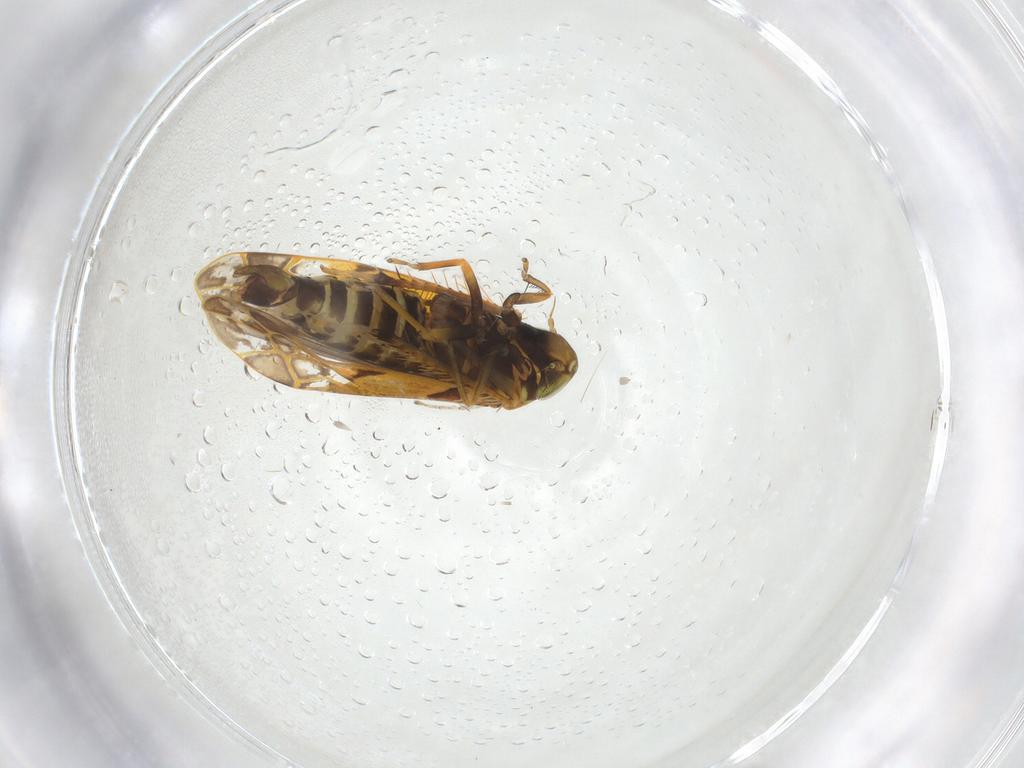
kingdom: Animalia
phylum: Arthropoda
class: Insecta
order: Hemiptera
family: Cicadellidae
